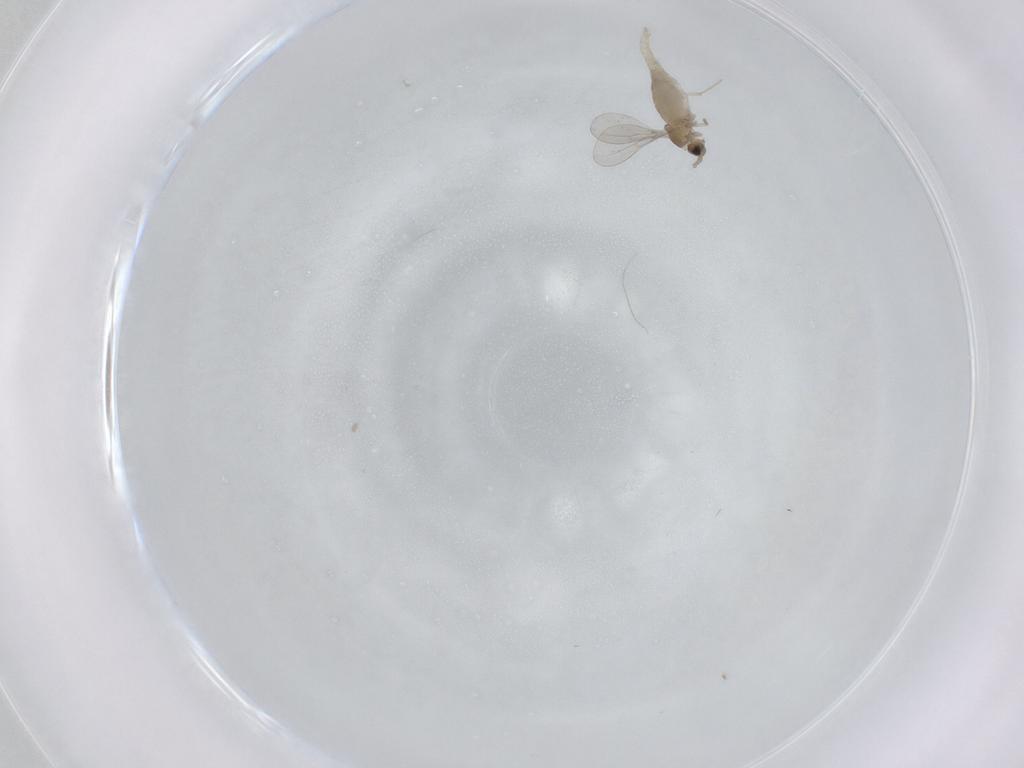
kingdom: Animalia
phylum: Arthropoda
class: Insecta
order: Diptera
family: Cecidomyiidae
